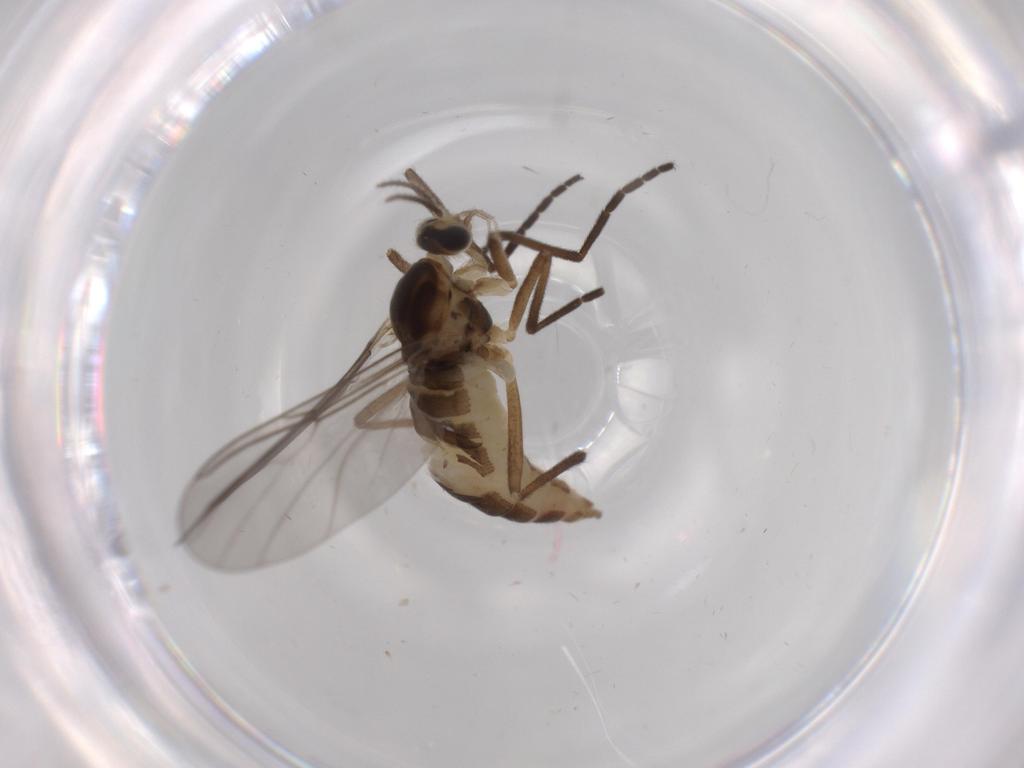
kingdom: Animalia
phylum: Arthropoda
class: Insecta
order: Diptera
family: Cecidomyiidae
